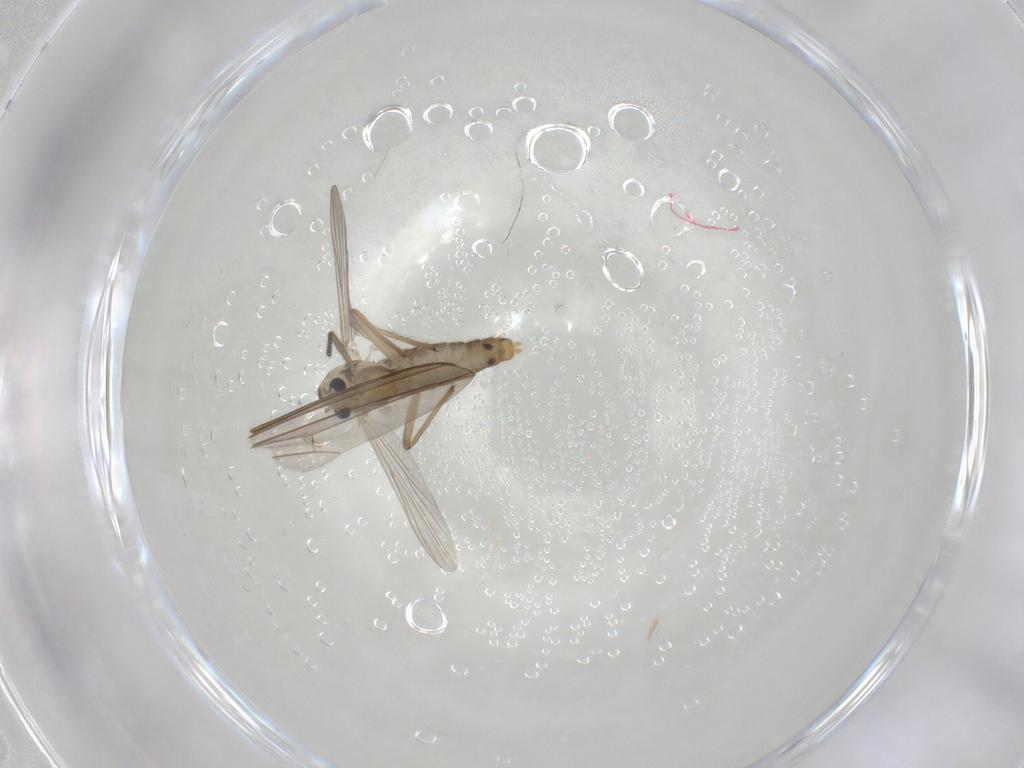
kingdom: Animalia
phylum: Arthropoda
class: Insecta
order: Diptera
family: Chironomidae
